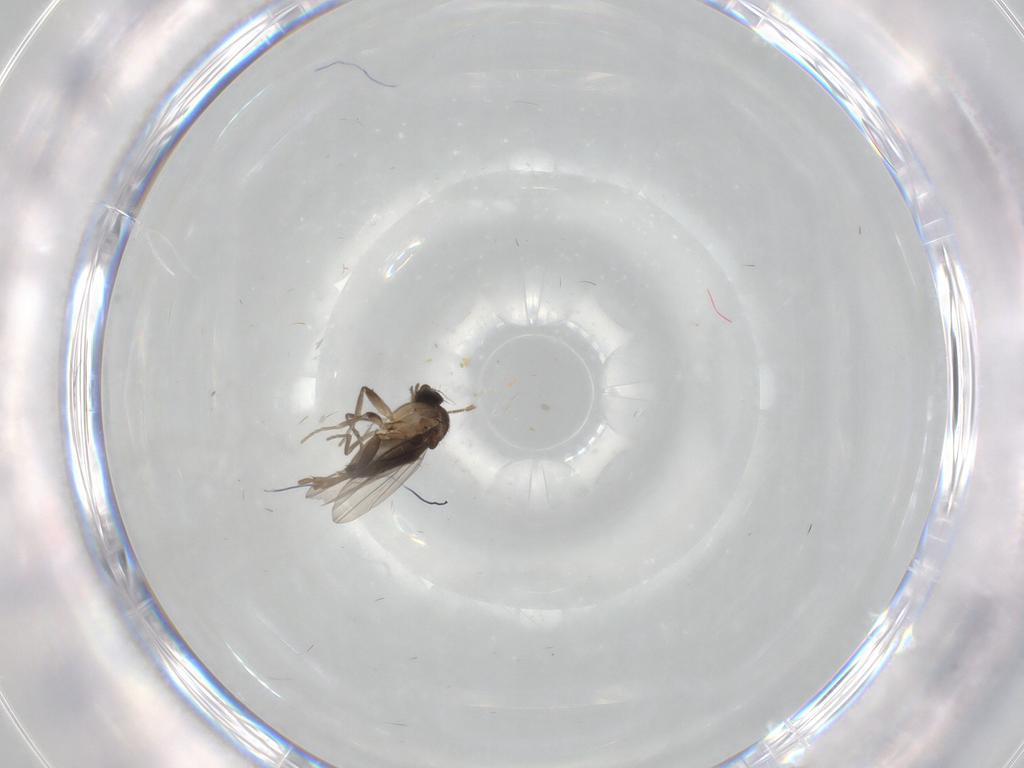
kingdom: Animalia
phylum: Arthropoda
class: Insecta
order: Diptera
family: Phoridae
